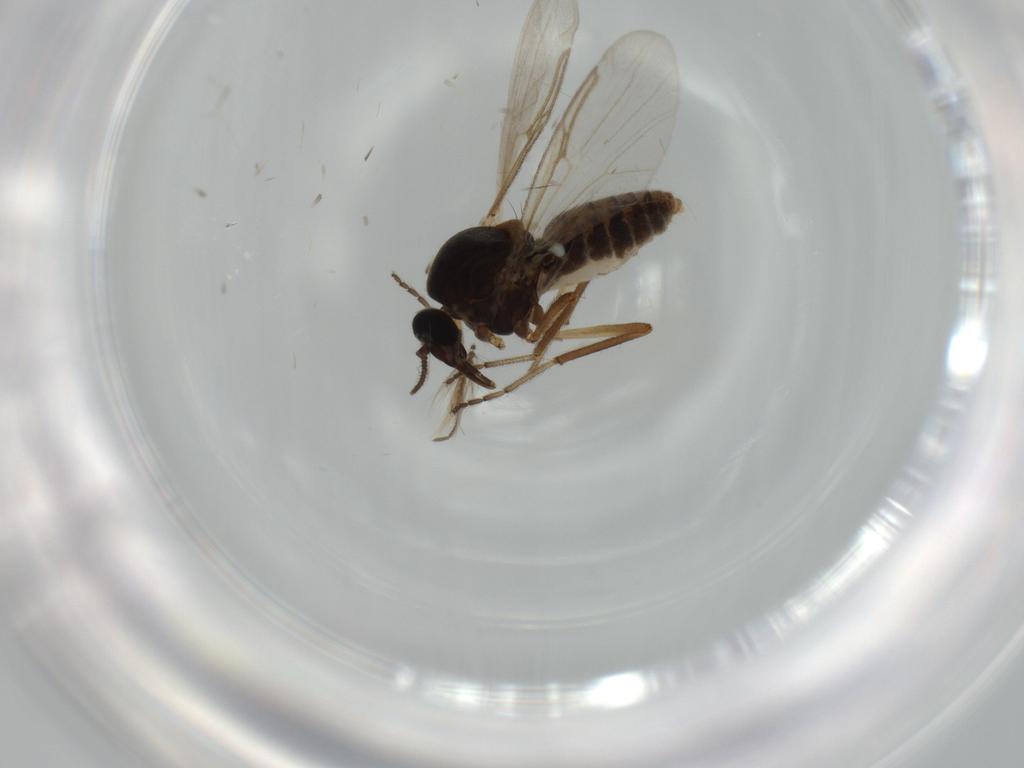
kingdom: Animalia
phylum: Arthropoda
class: Insecta
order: Diptera
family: Ceratopogonidae
